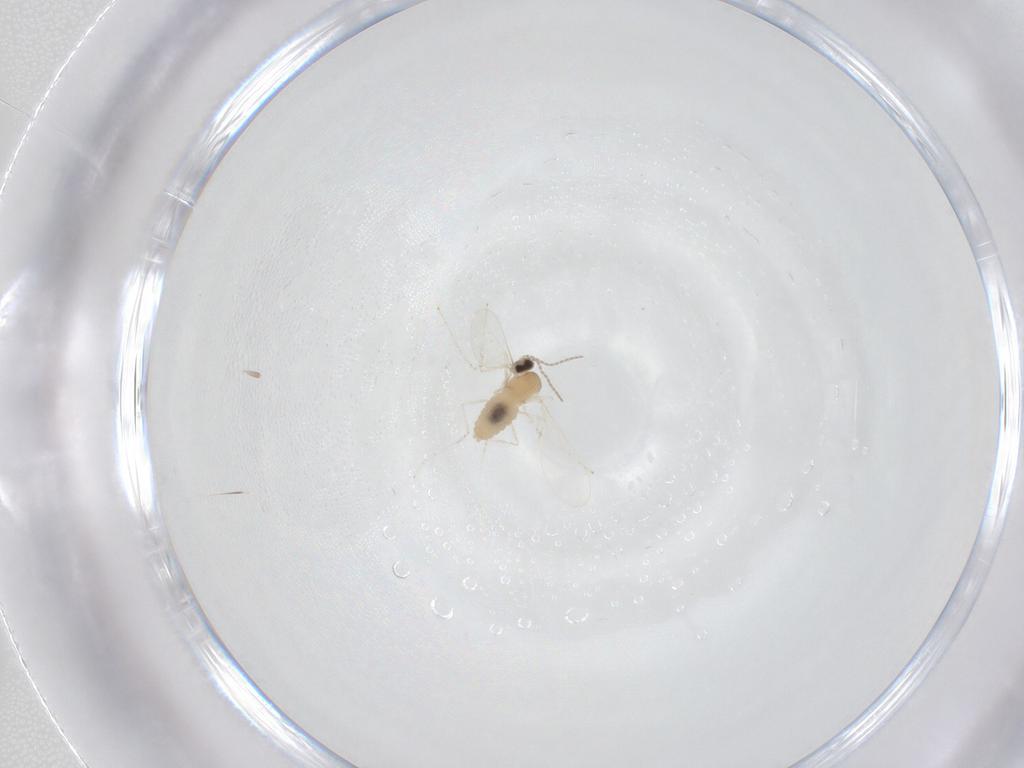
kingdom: Animalia
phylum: Arthropoda
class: Insecta
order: Diptera
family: Cecidomyiidae
